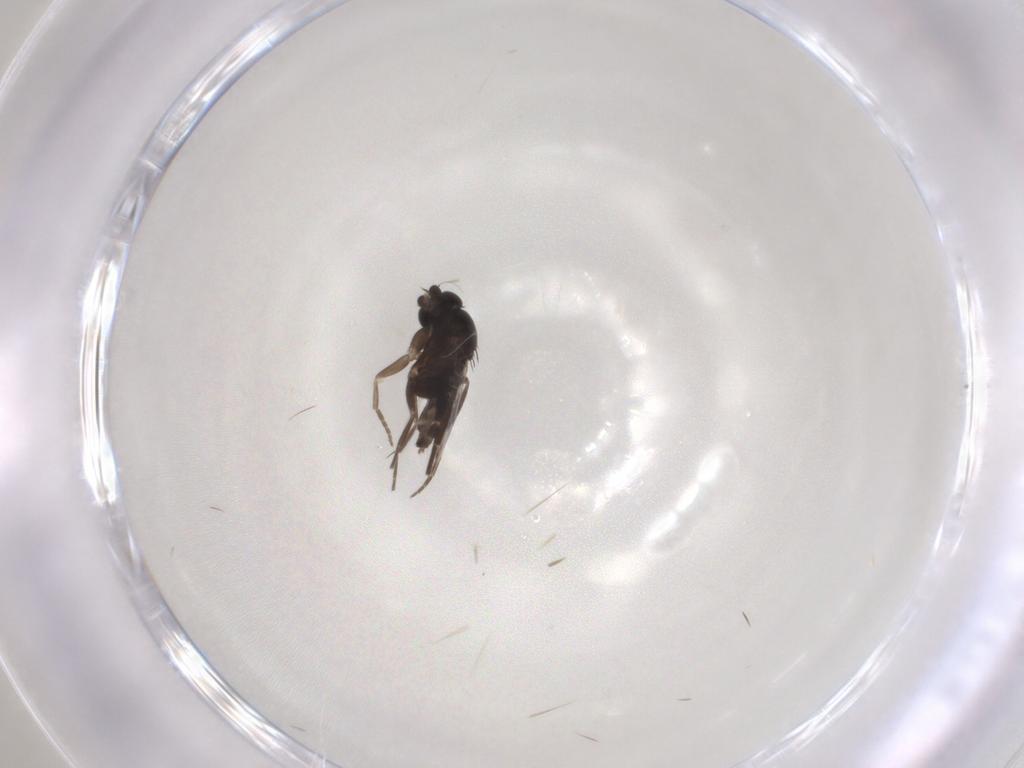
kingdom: Animalia
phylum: Arthropoda
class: Insecta
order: Diptera
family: Phoridae
